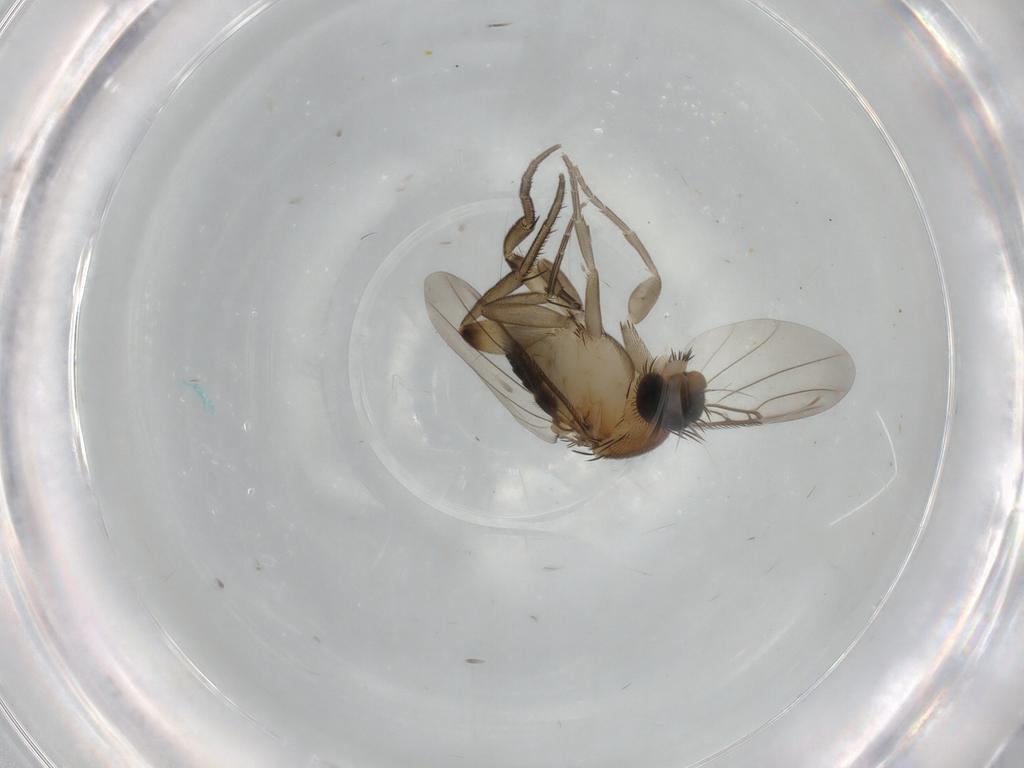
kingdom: Animalia
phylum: Arthropoda
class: Insecta
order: Diptera
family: Phoridae
